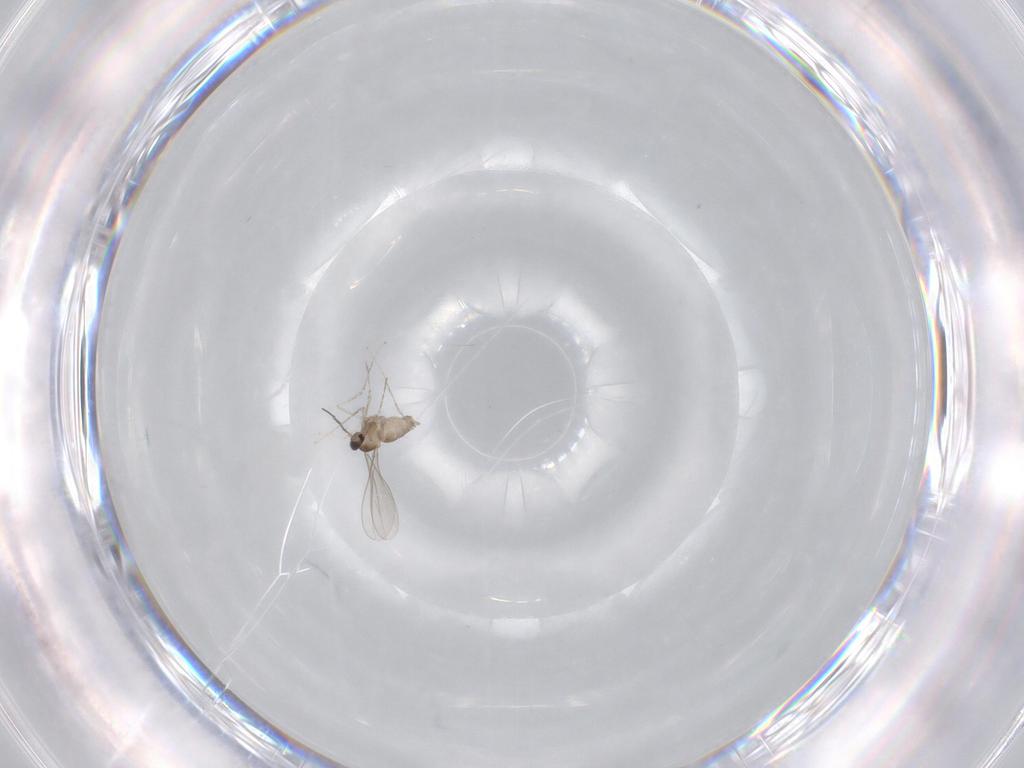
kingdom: Animalia
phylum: Arthropoda
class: Insecta
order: Diptera
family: Cecidomyiidae
